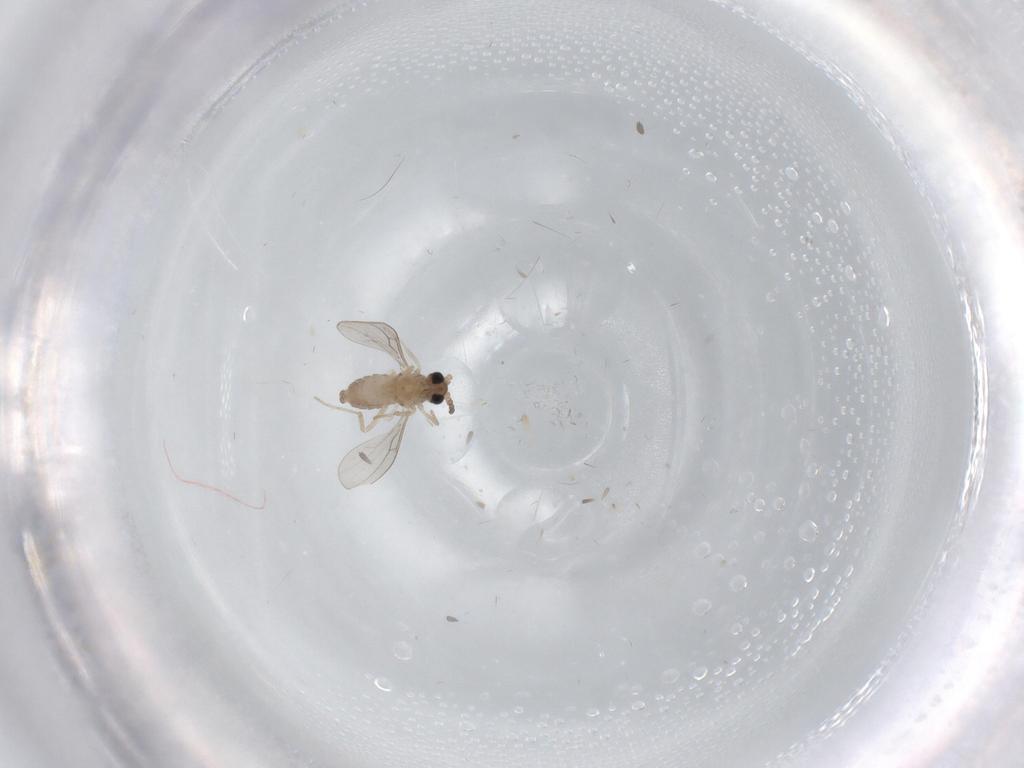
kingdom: Animalia
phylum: Arthropoda
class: Insecta
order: Diptera
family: Cecidomyiidae
